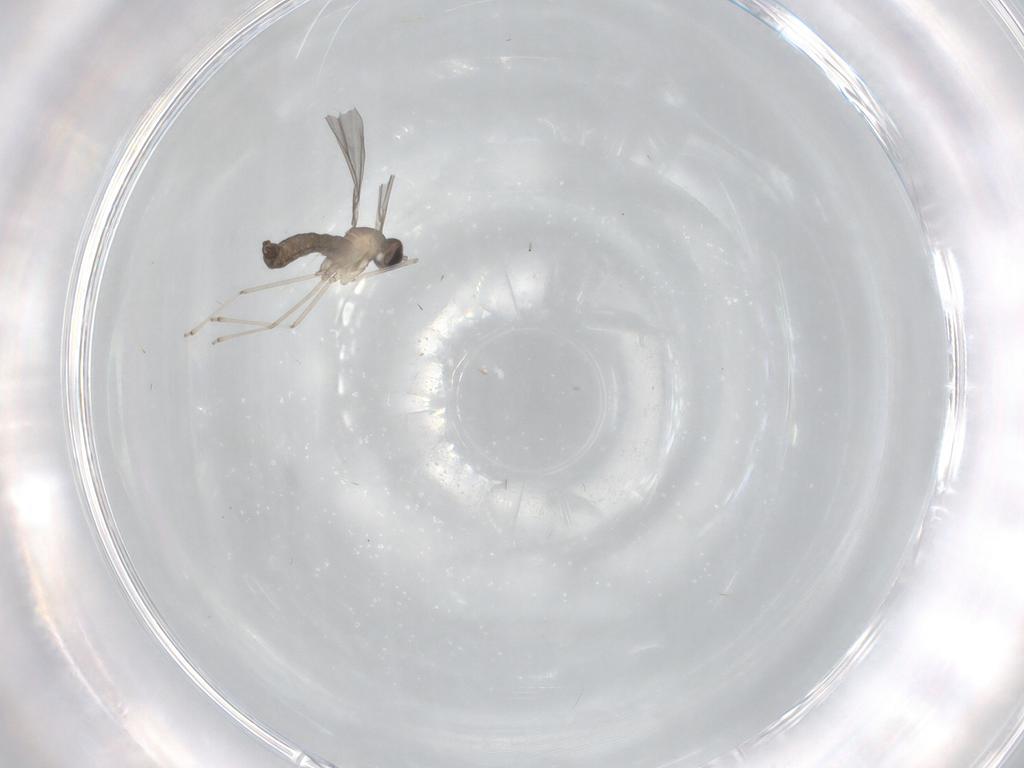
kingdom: Animalia
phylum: Arthropoda
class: Insecta
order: Diptera
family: Cecidomyiidae
